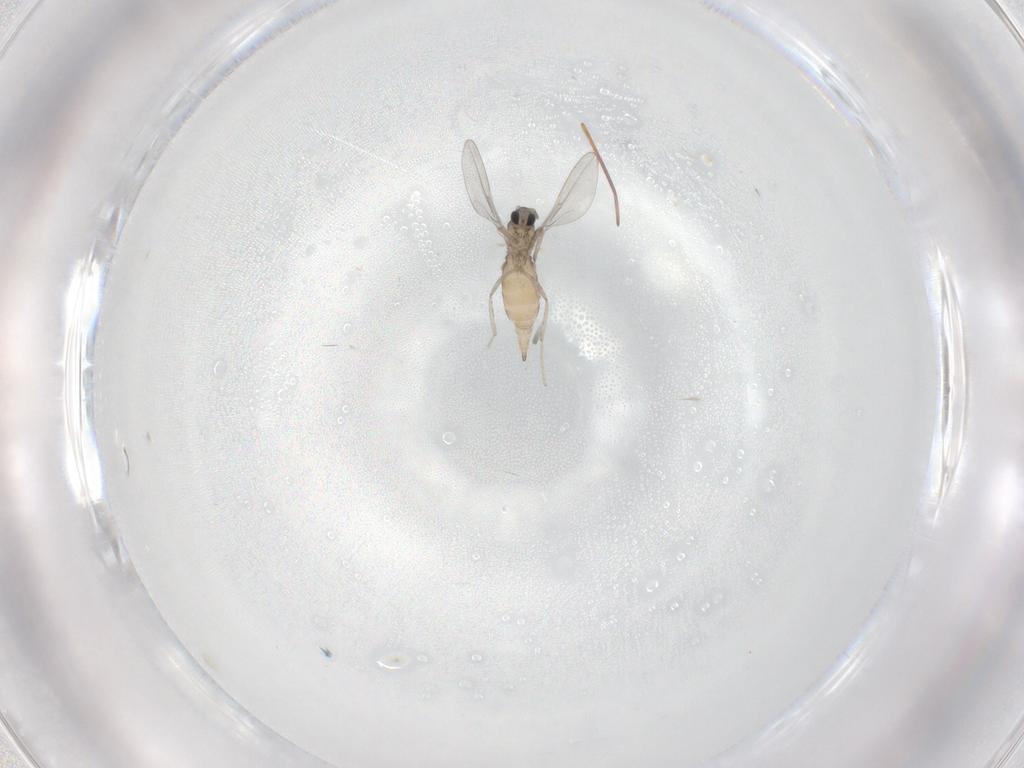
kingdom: Animalia
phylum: Arthropoda
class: Insecta
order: Diptera
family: Cecidomyiidae
